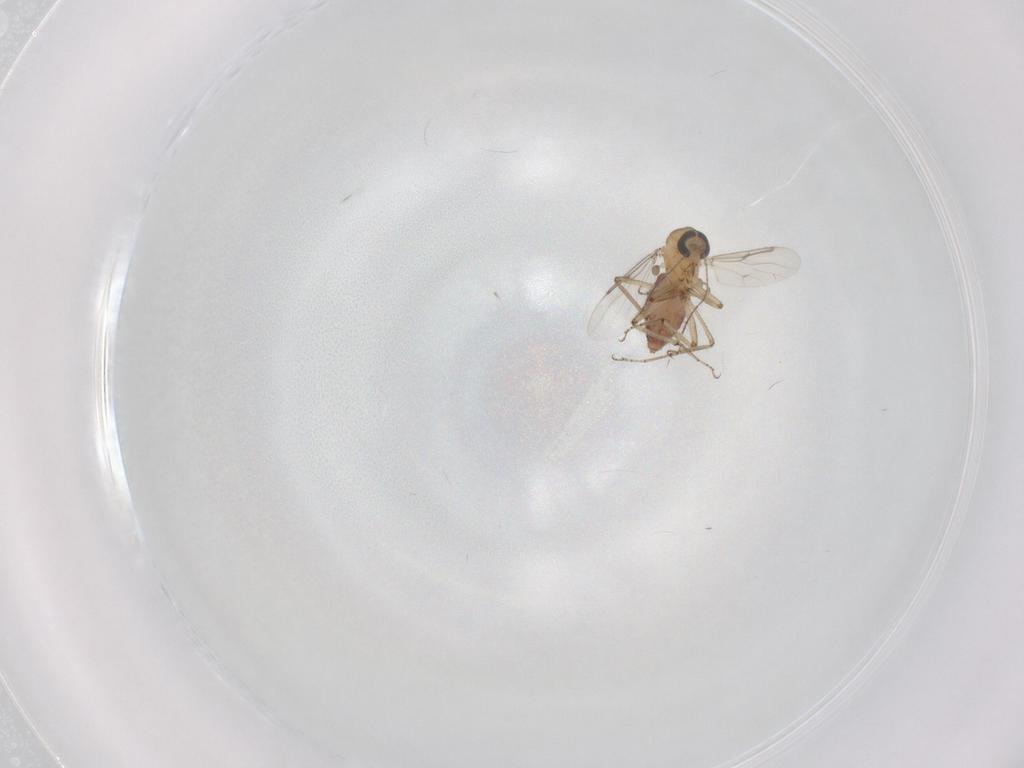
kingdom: Animalia
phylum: Arthropoda
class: Insecta
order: Diptera
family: Ceratopogonidae
